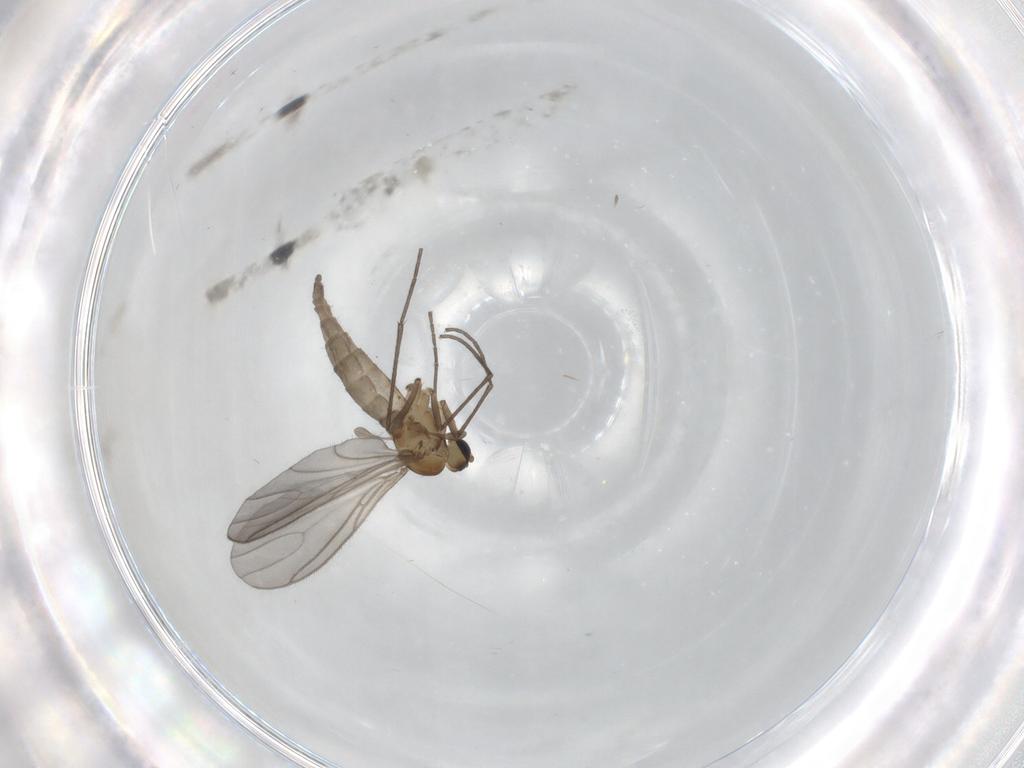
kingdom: Animalia
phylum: Arthropoda
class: Insecta
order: Diptera
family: Sciaridae
